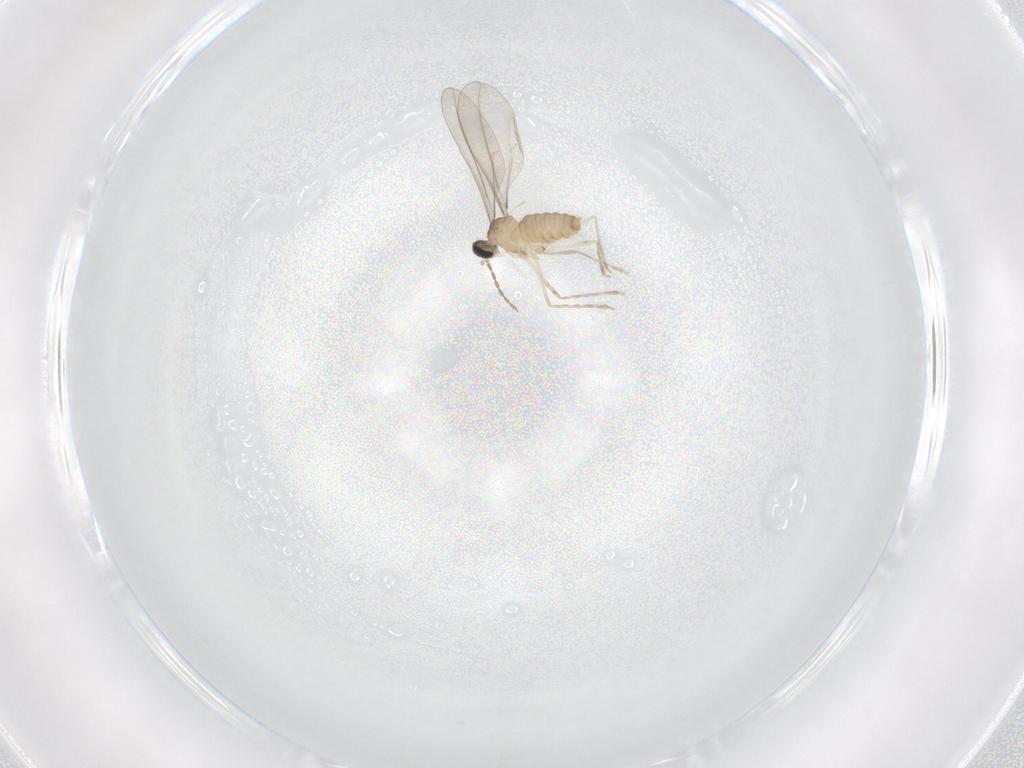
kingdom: Animalia
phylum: Arthropoda
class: Insecta
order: Diptera
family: Cecidomyiidae
